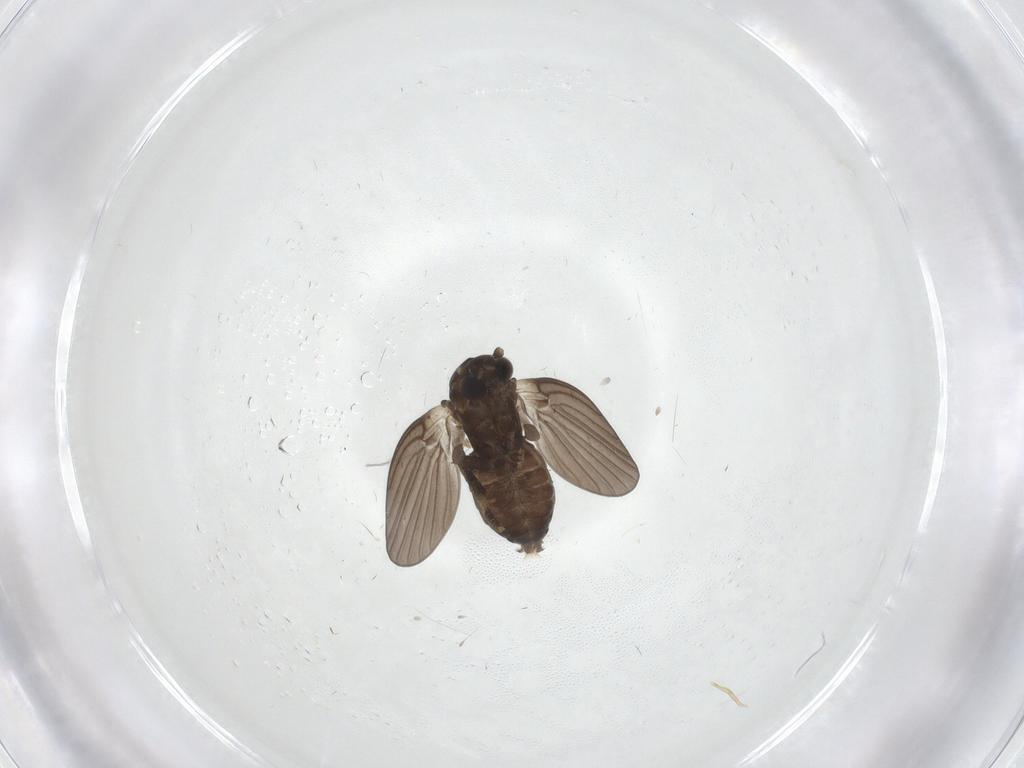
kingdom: Animalia
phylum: Arthropoda
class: Insecta
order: Diptera
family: Psychodidae
